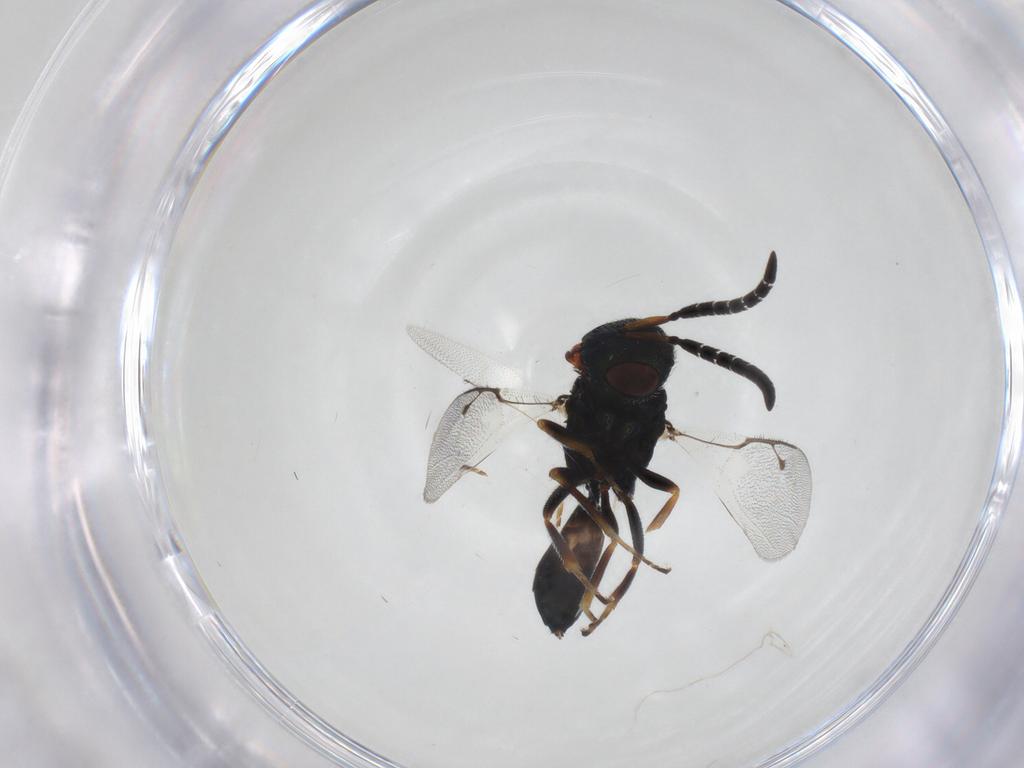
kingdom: Animalia
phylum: Arthropoda
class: Insecta
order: Hymenoptera
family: Pteromalidae
